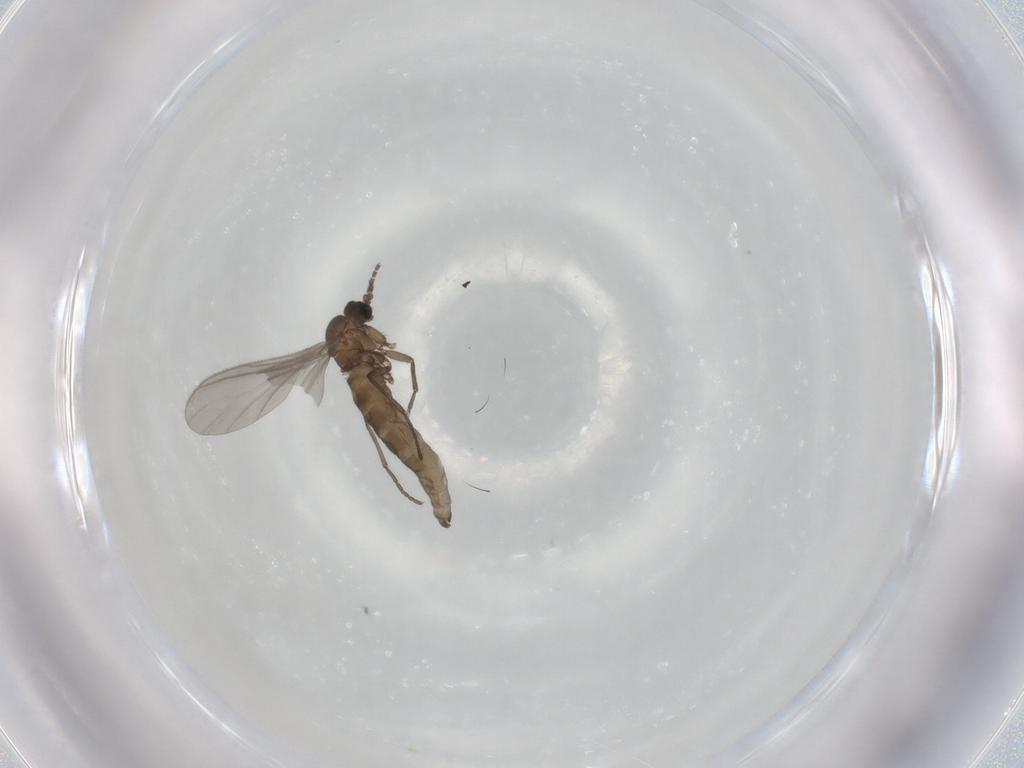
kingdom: Animalia
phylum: Arthropoda
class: Insecta
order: Diptera
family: Sciaridae
